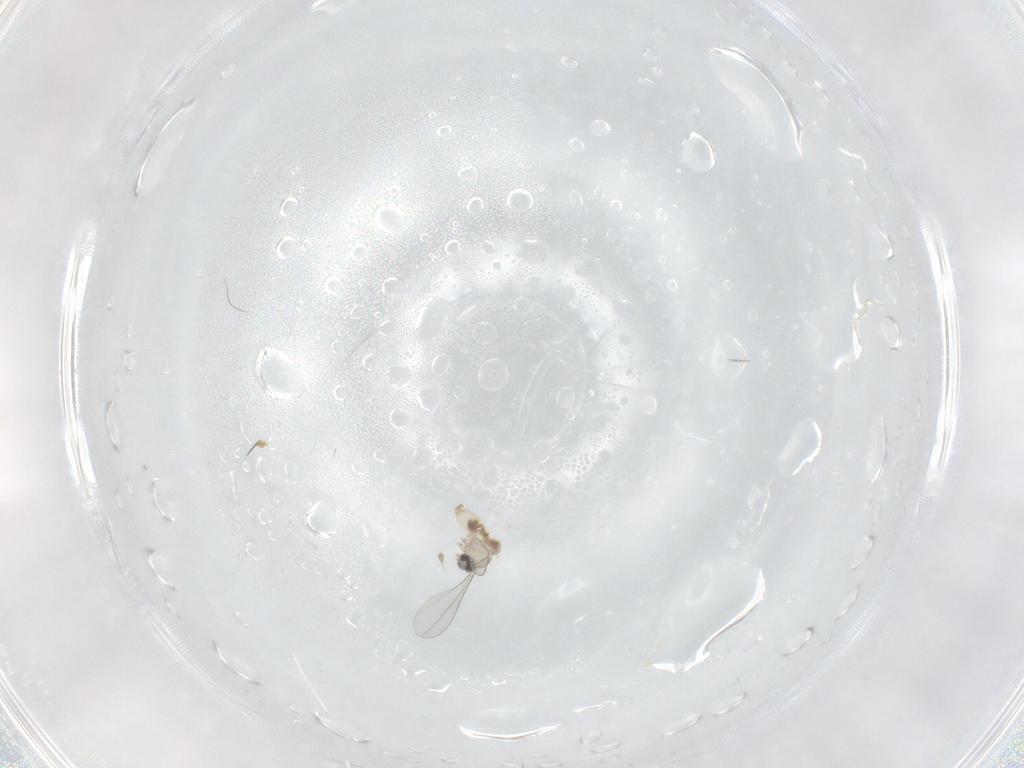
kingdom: Animalia
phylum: Arthropoda
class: Insecta
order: Diptera
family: Cecidomyiidae
